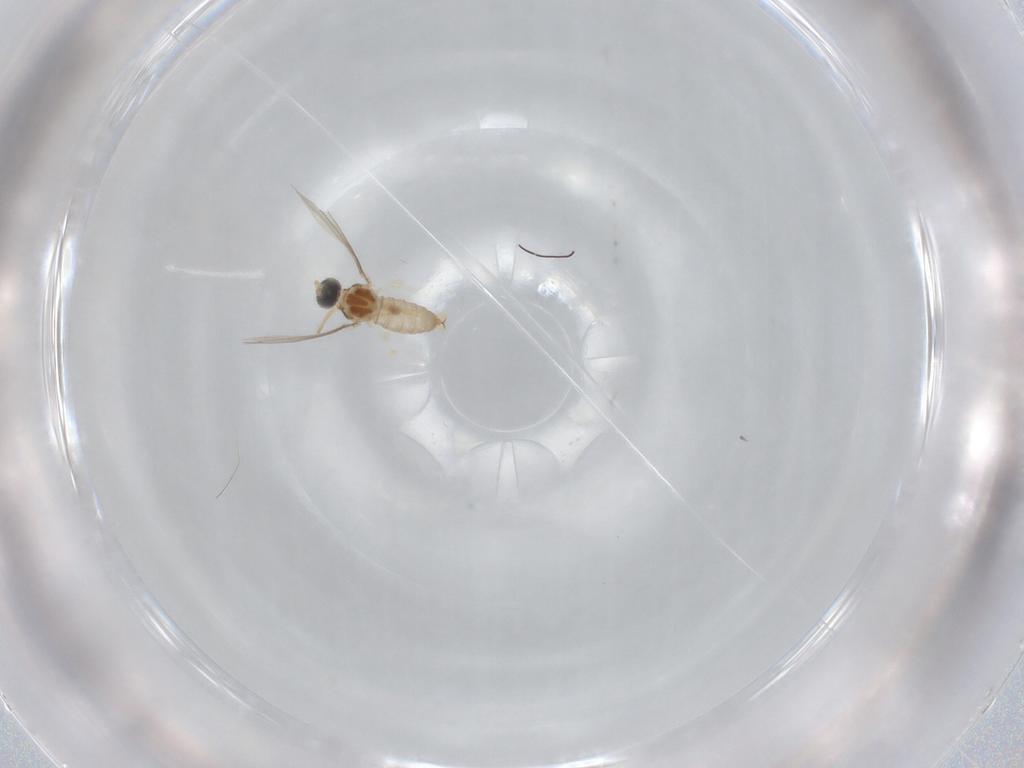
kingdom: Animalia
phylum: Arthropoda
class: Insecta
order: Diptera
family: Cecidomyiidae
